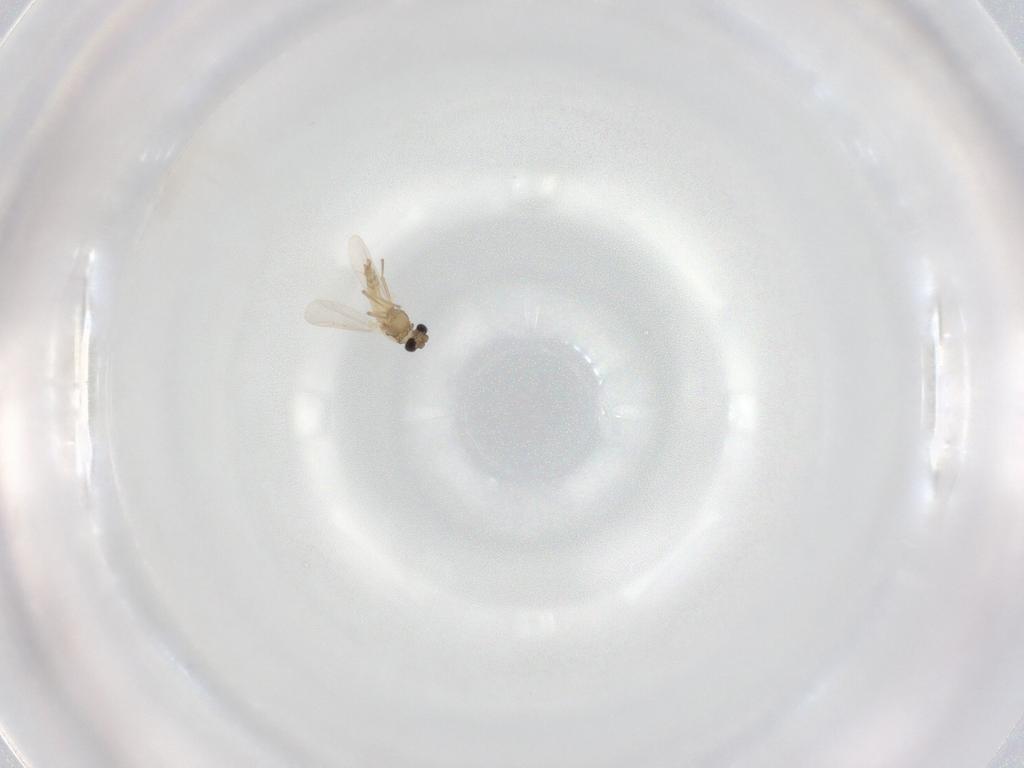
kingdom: Animalia
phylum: Arthropoda
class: Insecta
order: Diptera
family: Chironomidae
